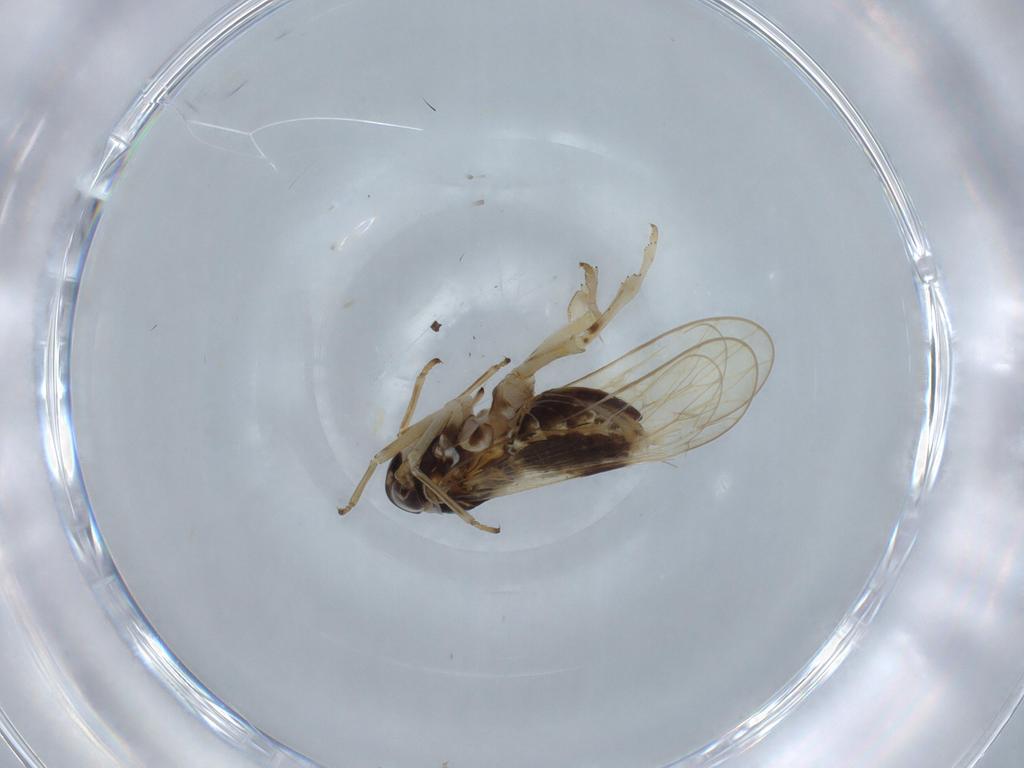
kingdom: Animalia
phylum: Arthropoda
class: Insecta
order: Hemiptera
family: Delphacidae
